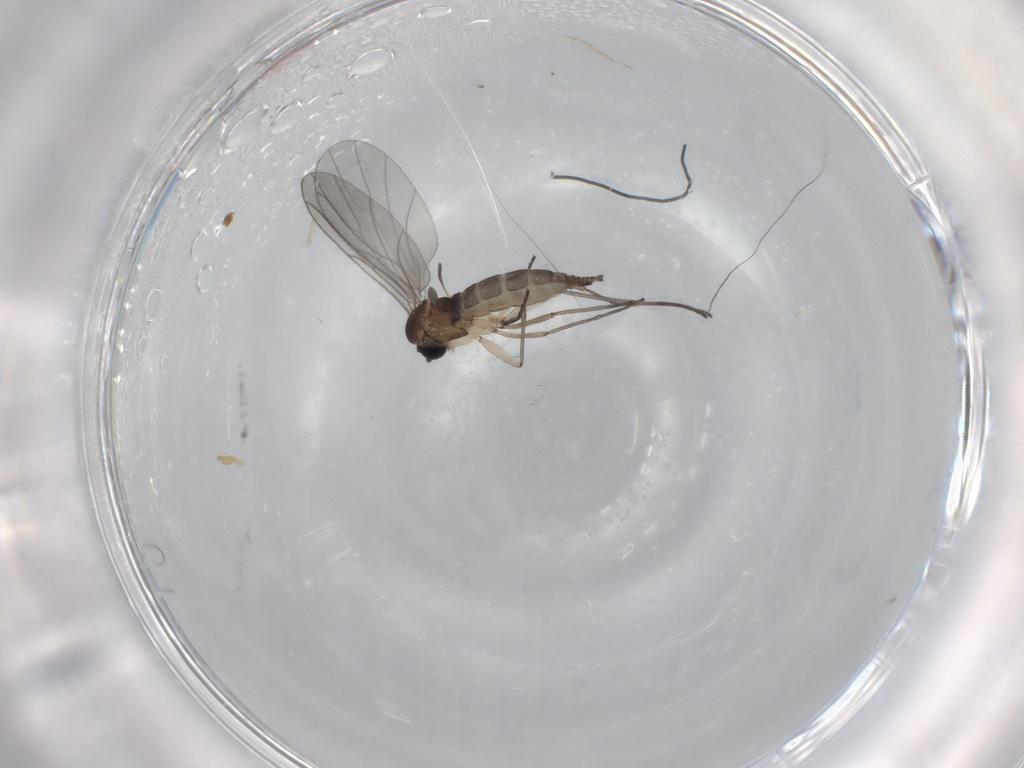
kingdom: Animalia
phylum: Arthropoda
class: Insecta
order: Diptera
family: Sciaridae
